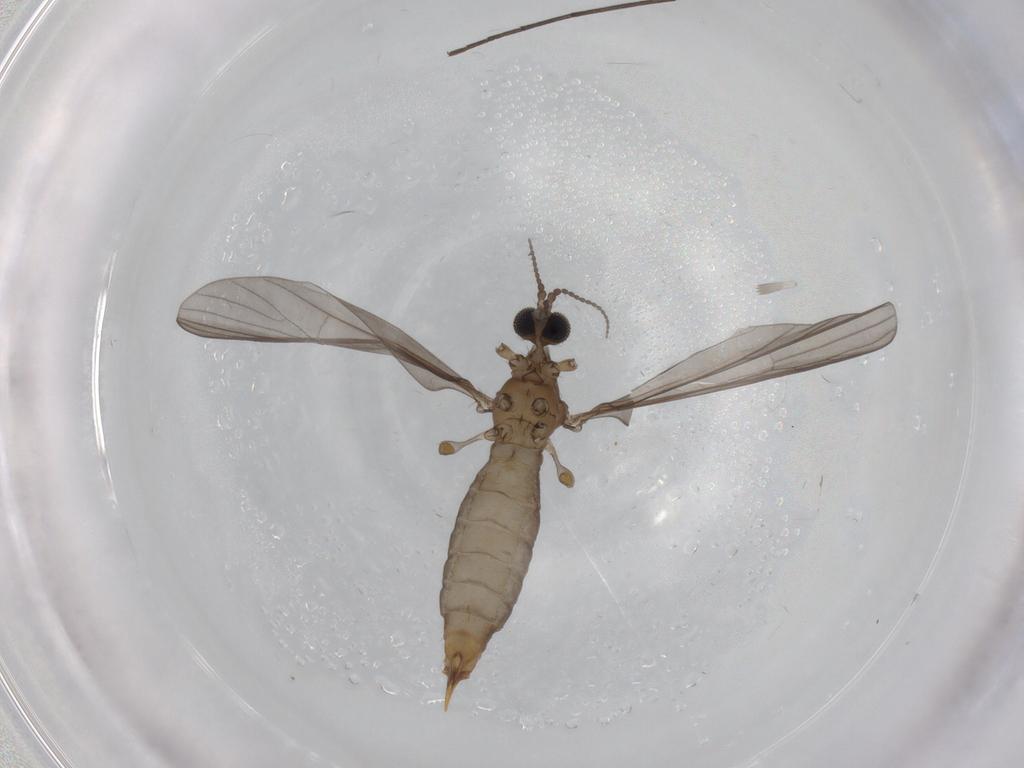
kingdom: Animalia
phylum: Arthropoda
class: Insecta
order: Diptera
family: Limoniidae
